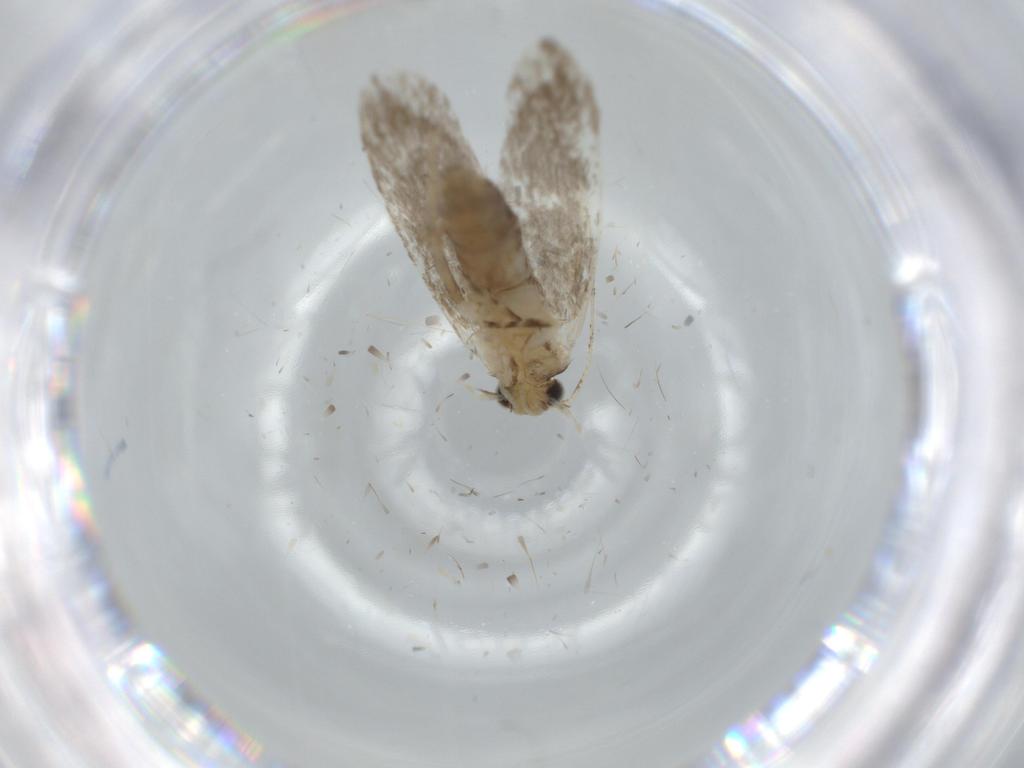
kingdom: Animalia
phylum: Arthropoda
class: Insecta
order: Lepidoptera
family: Tineidae
